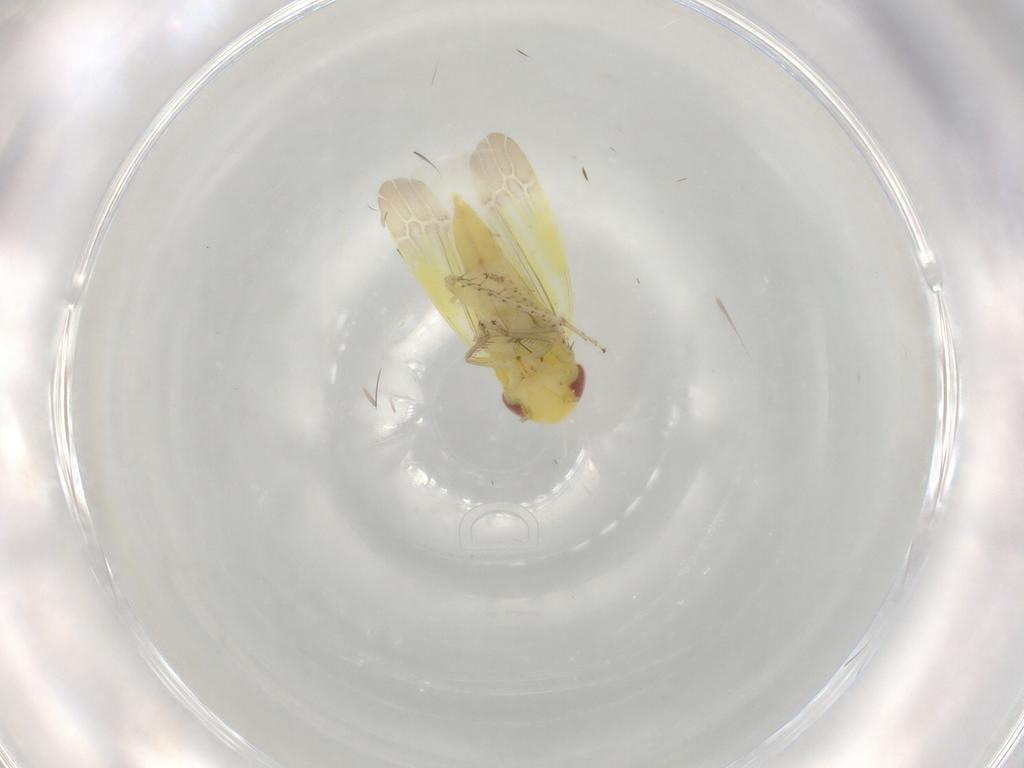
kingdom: Animalia
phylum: Arthropoda
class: Insecta
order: Hemiptera
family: Cicadellidae
